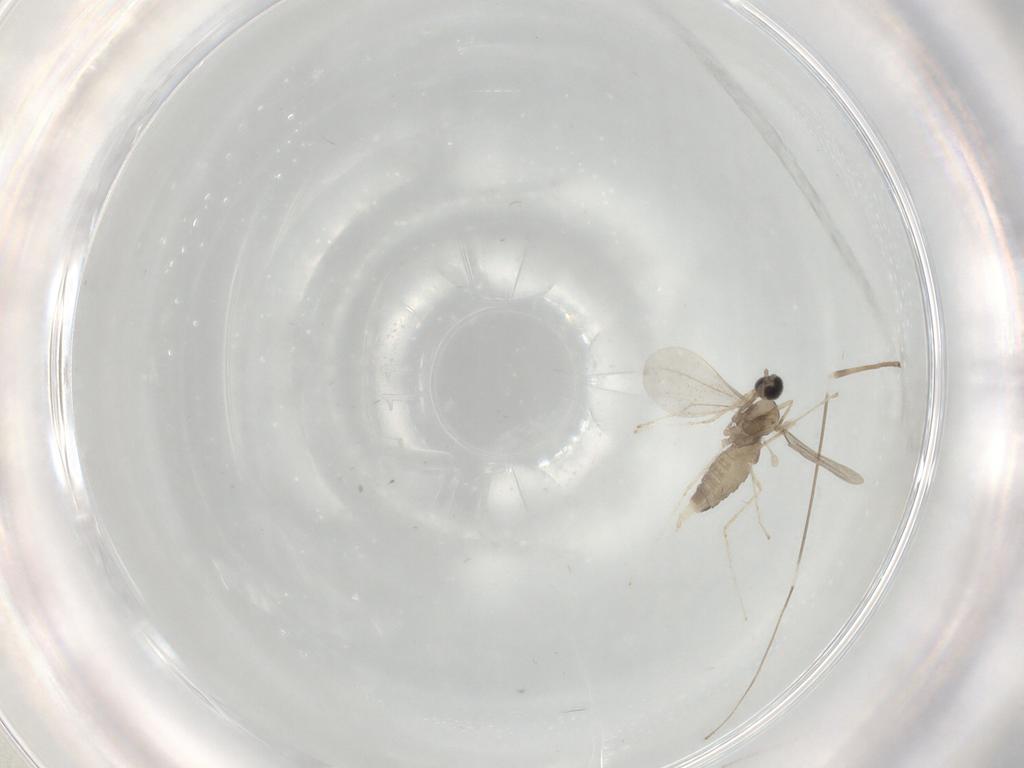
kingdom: Animalia
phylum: Arthropoda
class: Insecta
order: Diptera
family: Cecidomyiidae
